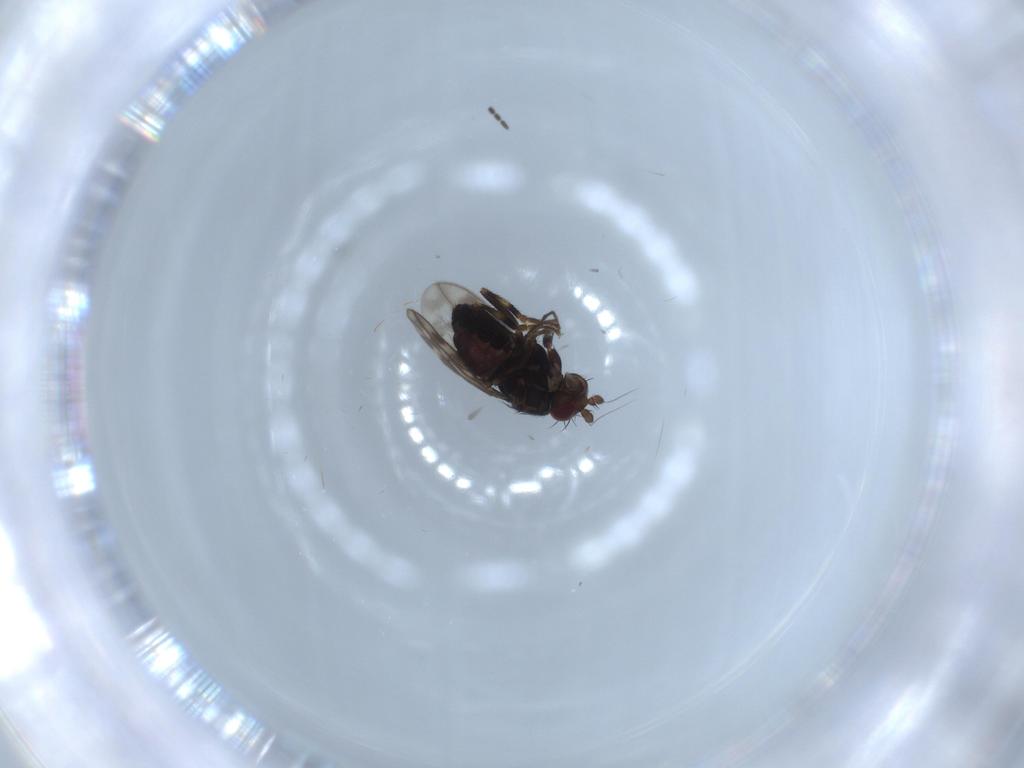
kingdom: Animalia
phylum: Arthropoda
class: Insecta
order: Diptera
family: Sphaeroceridae
